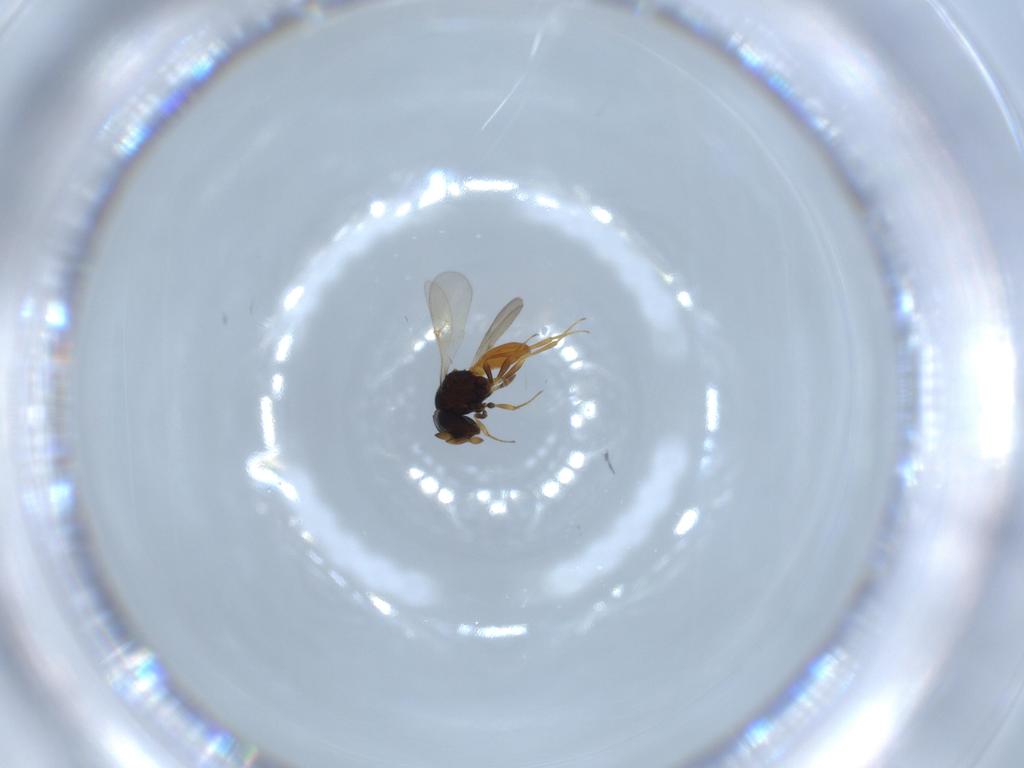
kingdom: Animalia
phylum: Arthropoda
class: Insecta
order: Hymenoptera
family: Scelionidae
